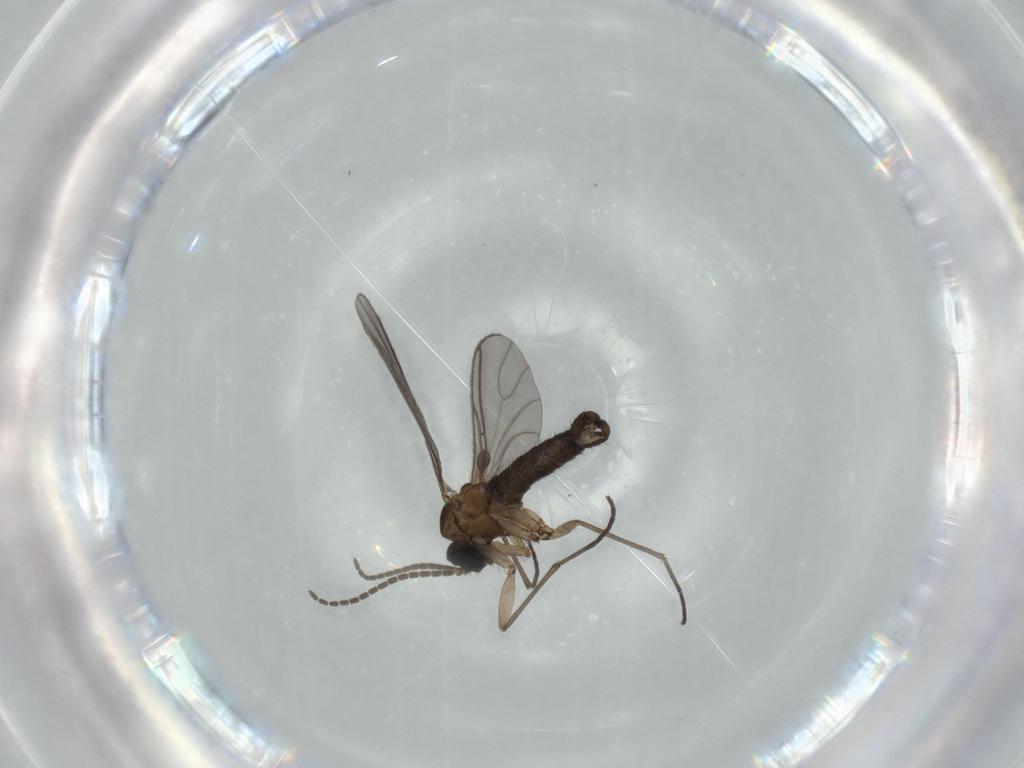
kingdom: Animalia
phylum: Arthropoda
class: Insecta
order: Diptera
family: Sciaridae
